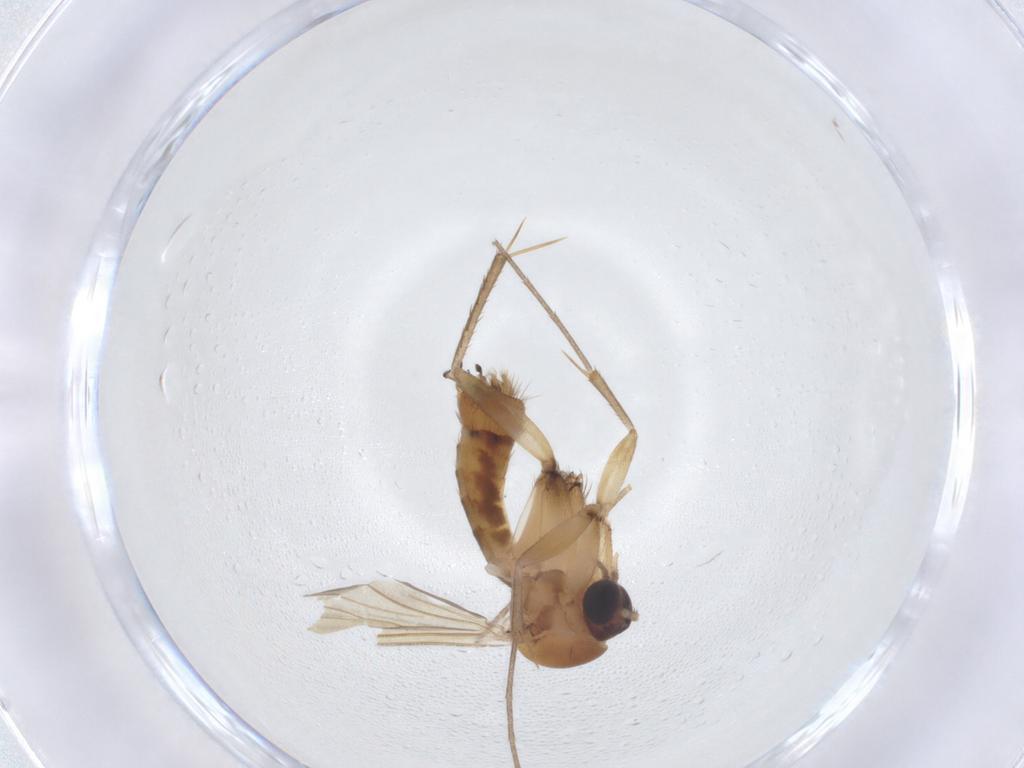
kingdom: Animalia
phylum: Arthropoda
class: Insecta
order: Diptera
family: Mycetophilidae
